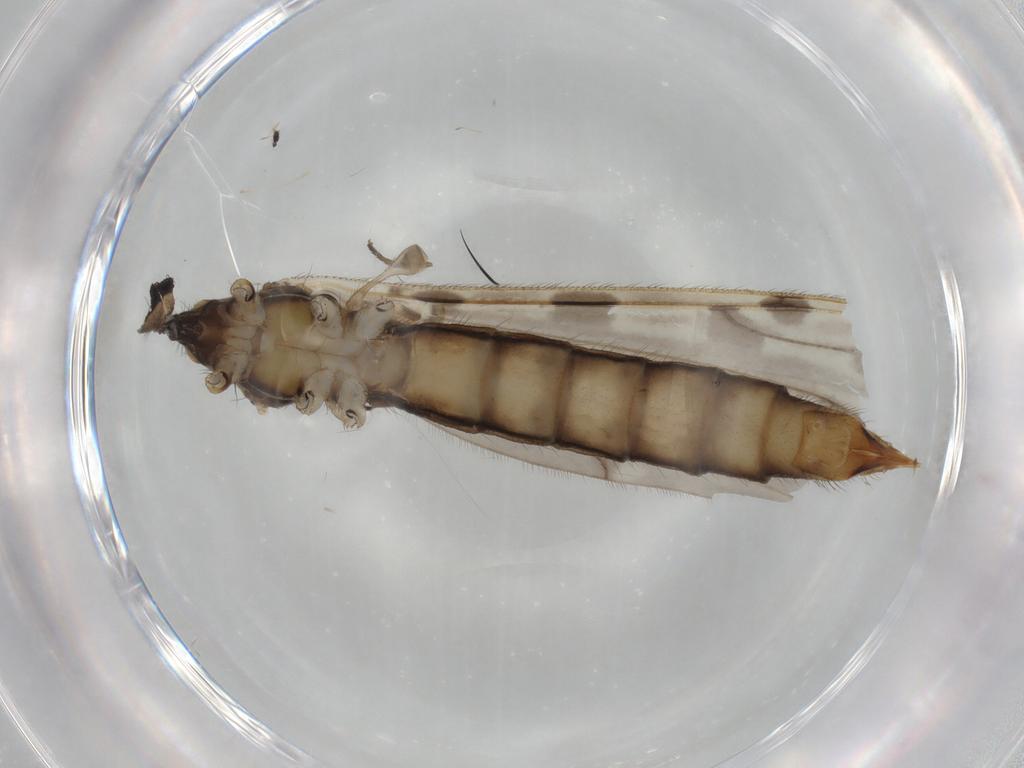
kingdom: Animalia
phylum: Arthropoda
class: Insecta
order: Diptera
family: Limoniidae
